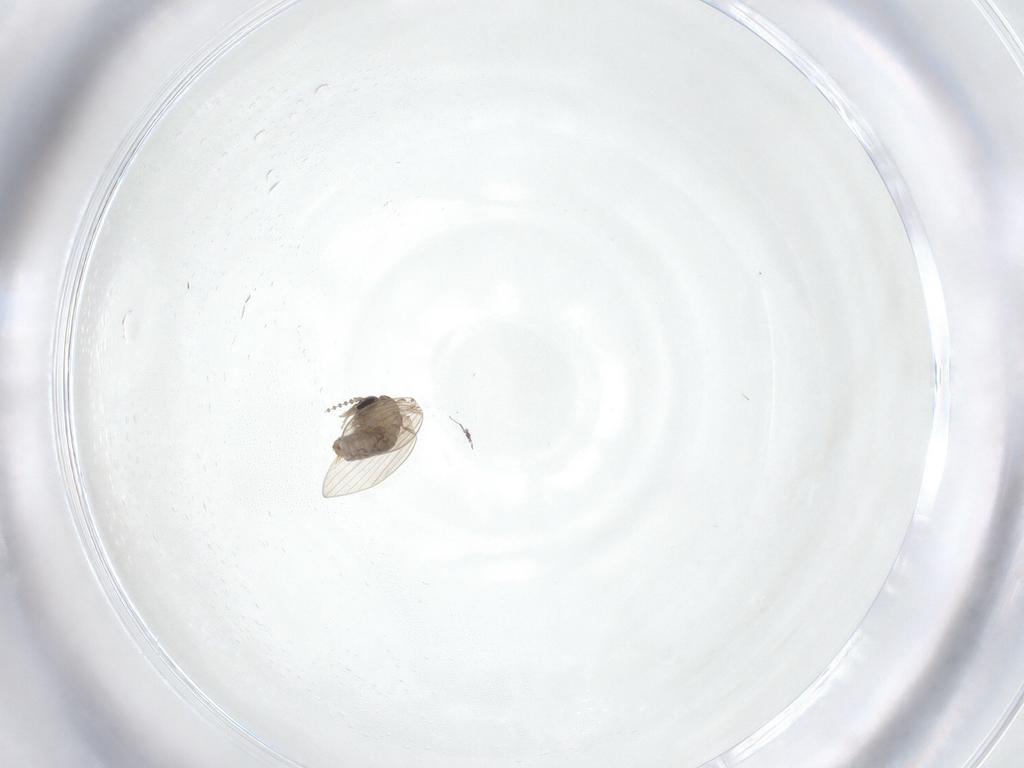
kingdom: Animalia
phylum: Arthropoda
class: Insecta
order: Diptera
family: Psychodidae
